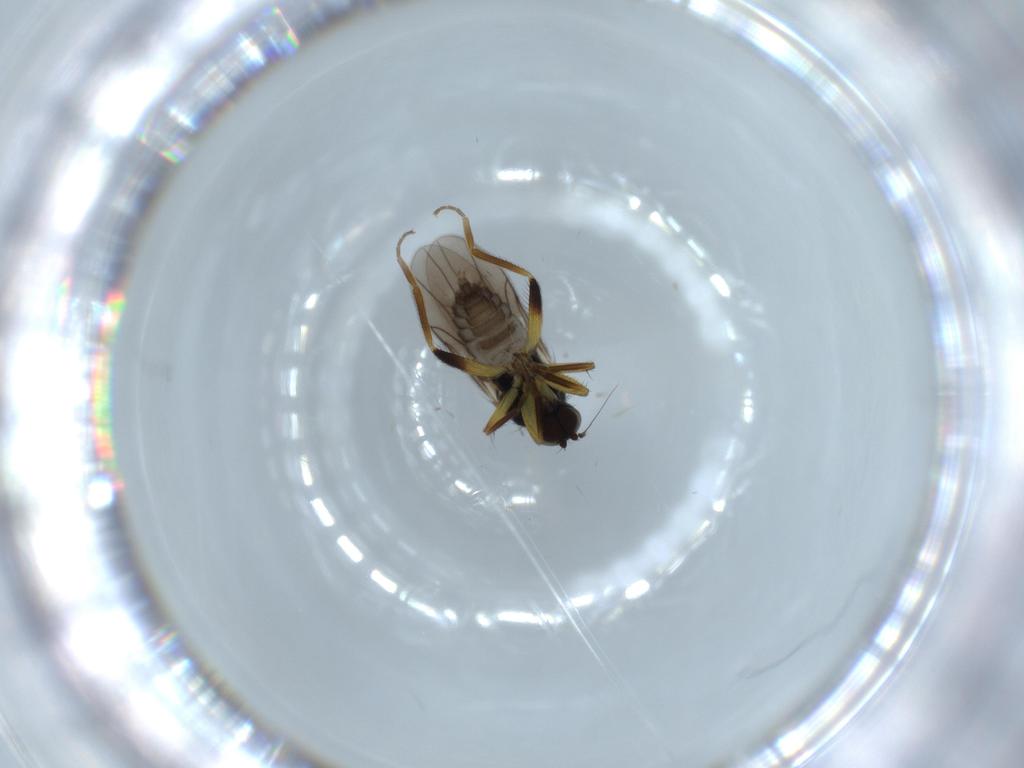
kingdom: Animalia
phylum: Arthropoda
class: Insecta
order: Diptera
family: Hybotidae
